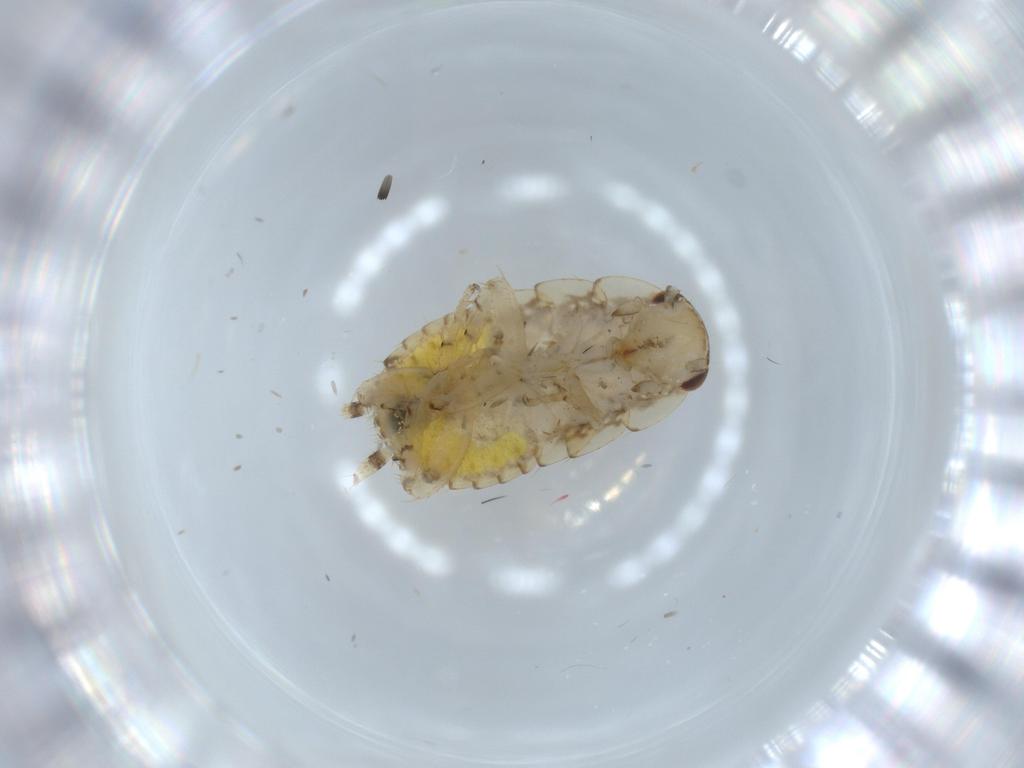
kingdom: Animalia
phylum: Arthropoda
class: Insecta
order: Blattodea
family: Ectobiidae
